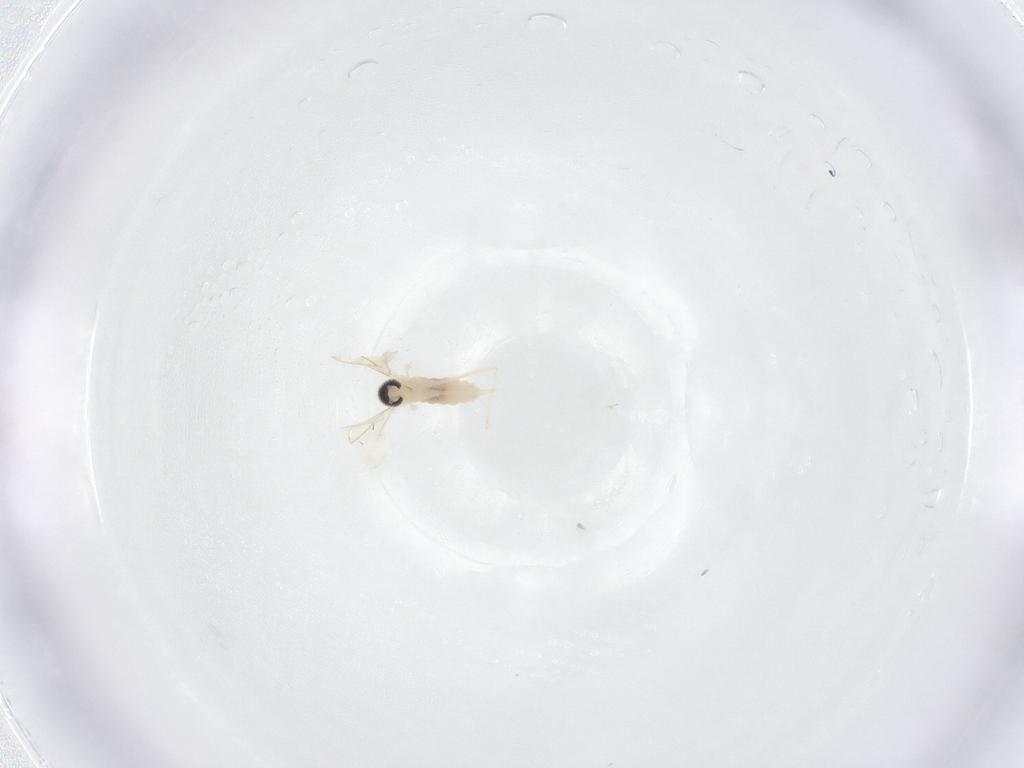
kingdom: Animalia
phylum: Arthropoda
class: Insecta
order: Diptera
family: Cecidomyiidae
